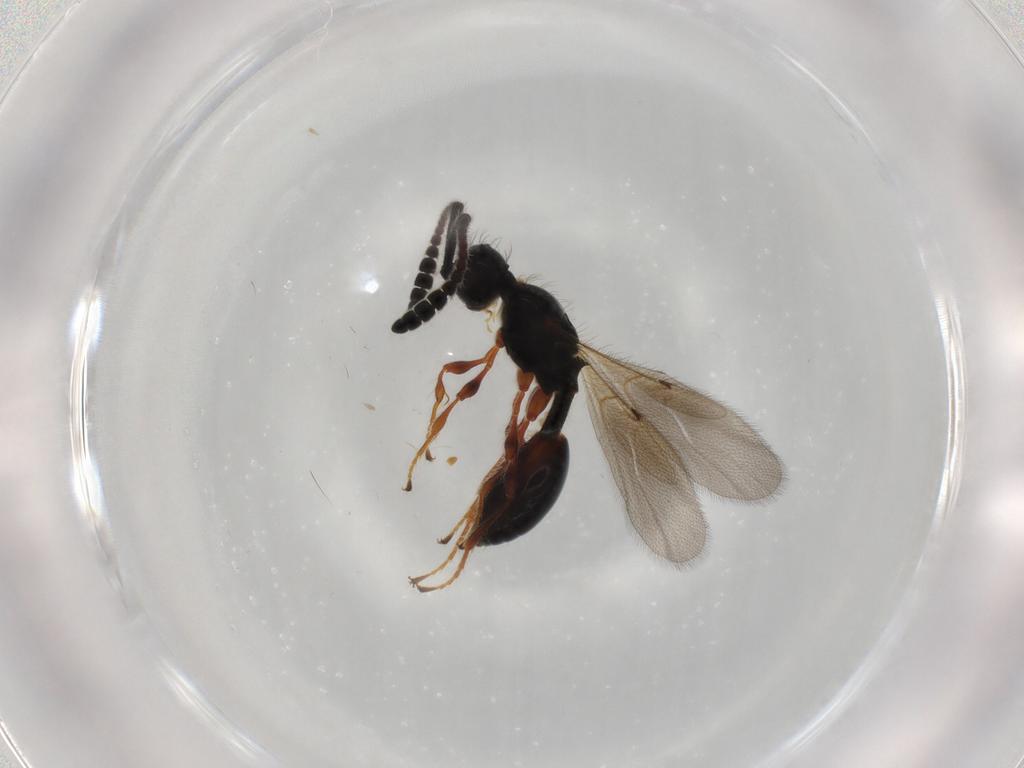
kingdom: Animalia
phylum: Arthropoda
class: Insecta
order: Hymenoptera
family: Diapriidae
